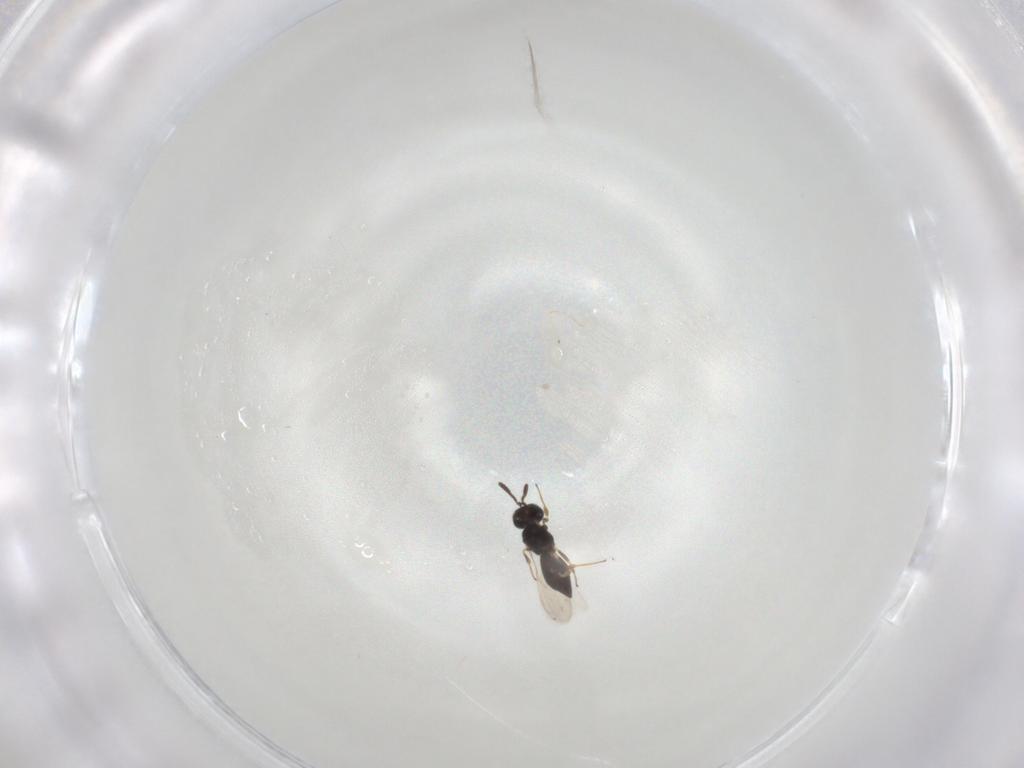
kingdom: Animalia
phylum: Arthropoda
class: Insecta
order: Hymenoptera
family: Scelionidae
